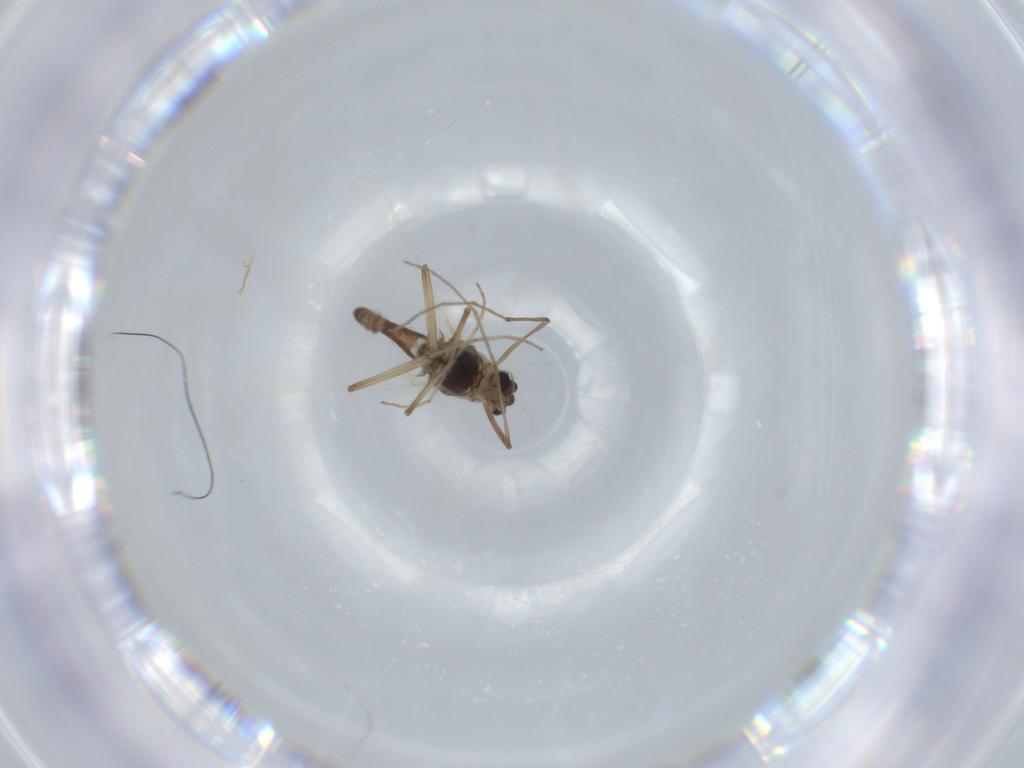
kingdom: Animalia
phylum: Arthropoda
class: Insecta
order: Diptera
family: Chironomidae
